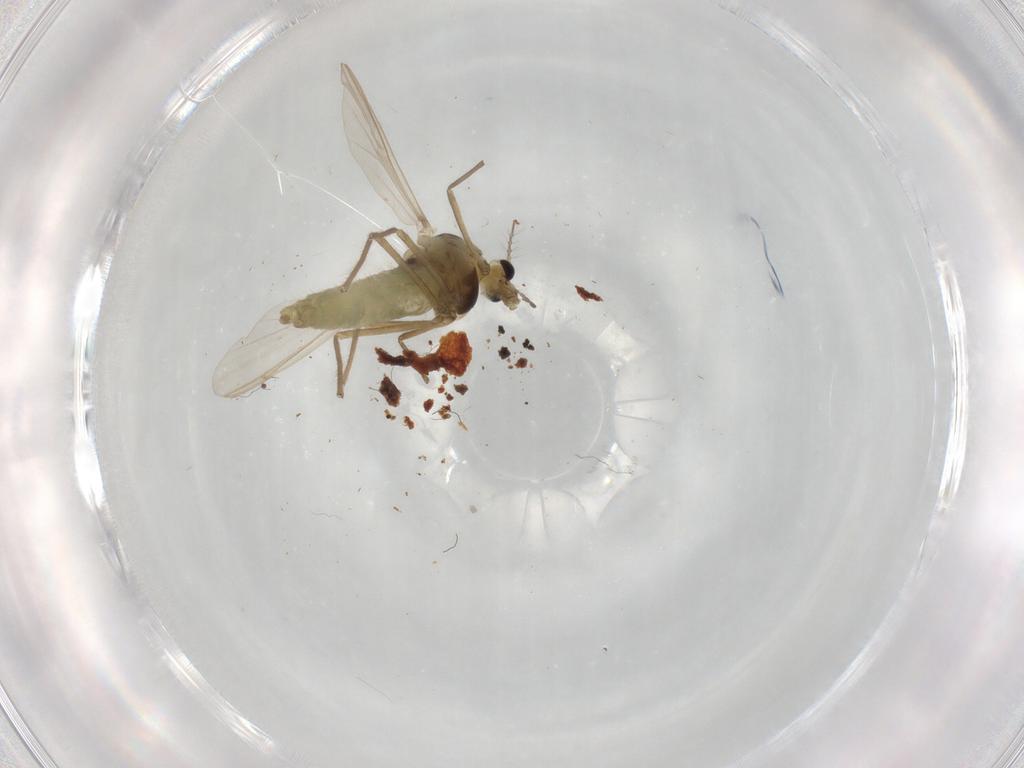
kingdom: Animalia
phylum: Arthropoda
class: Insecta
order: Diptera
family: Chironomidae
